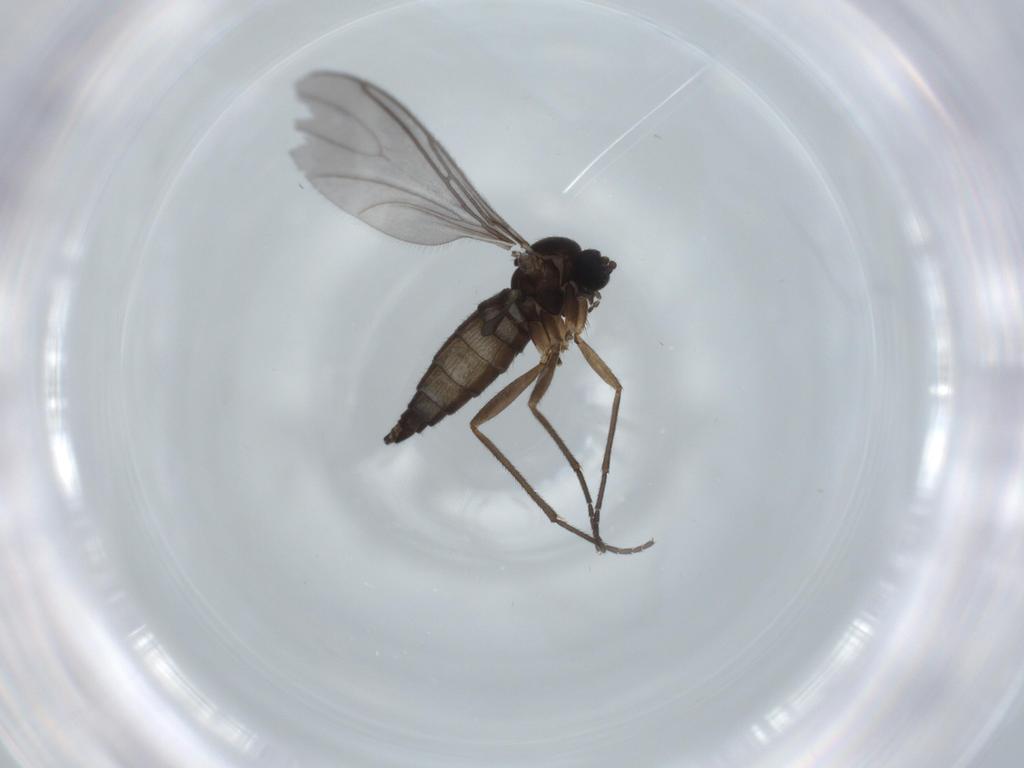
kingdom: Animalia
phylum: Arthropoda
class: Insecta
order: Diptera
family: Sciaridae
